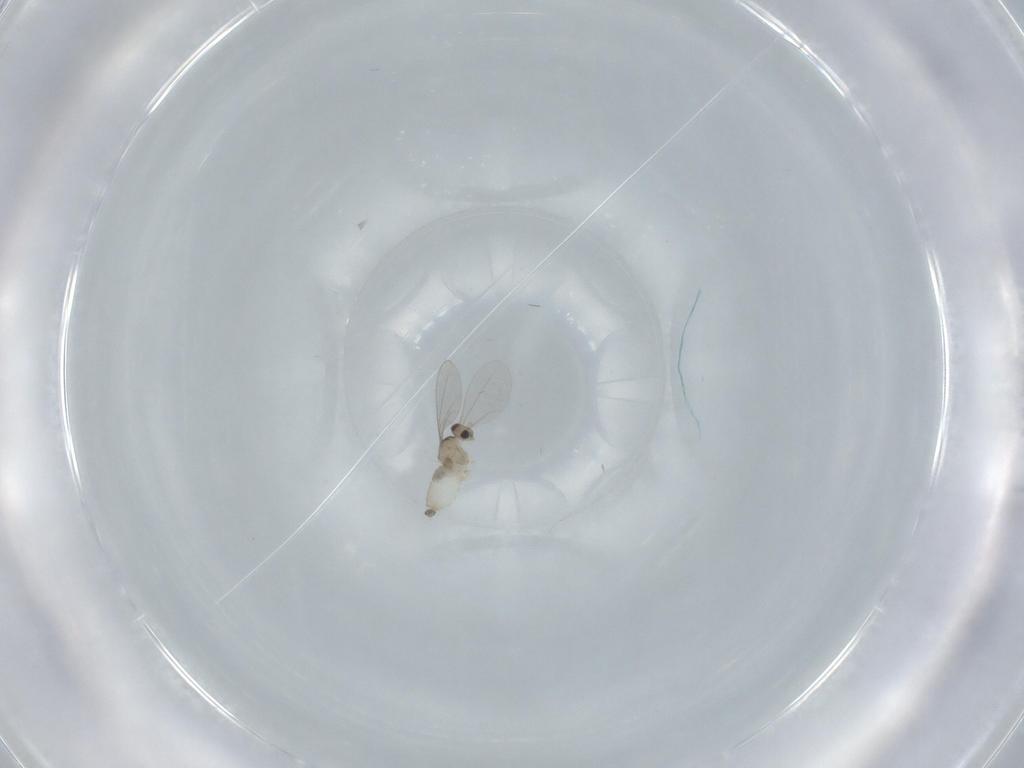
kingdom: Animalia
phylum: Arthropoda
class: Insecta
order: Diptera
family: Cecidomyiidae
